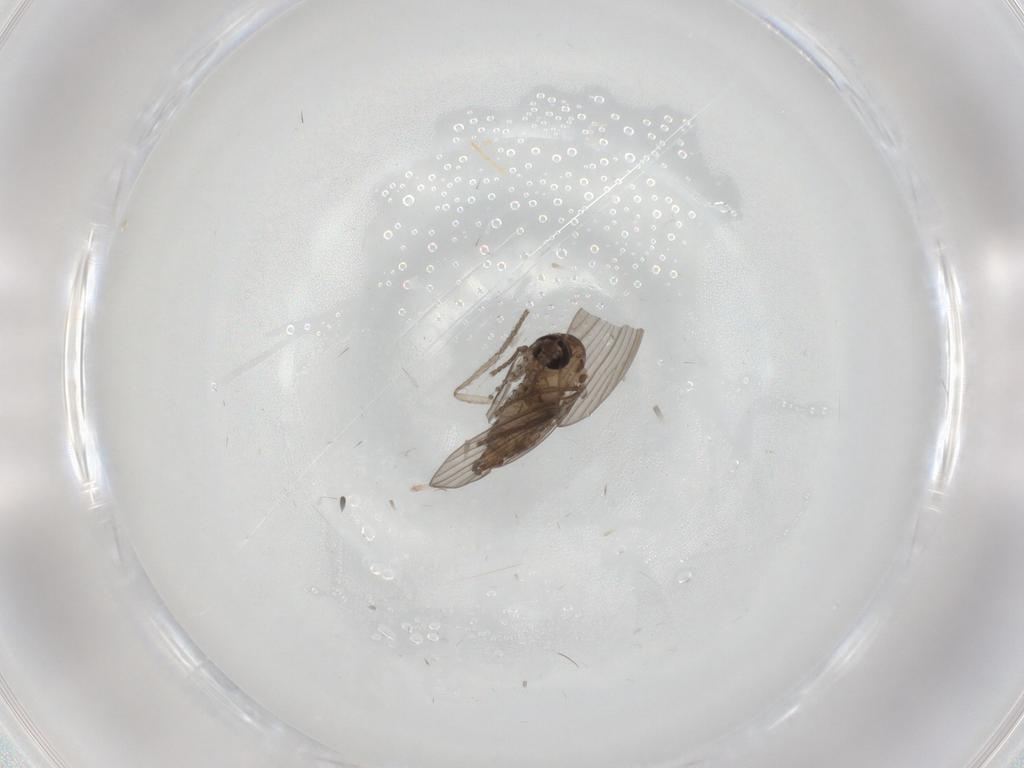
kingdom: Animalia
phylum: Arthropoda
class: Insecta
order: Diptera
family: Psychodidae
